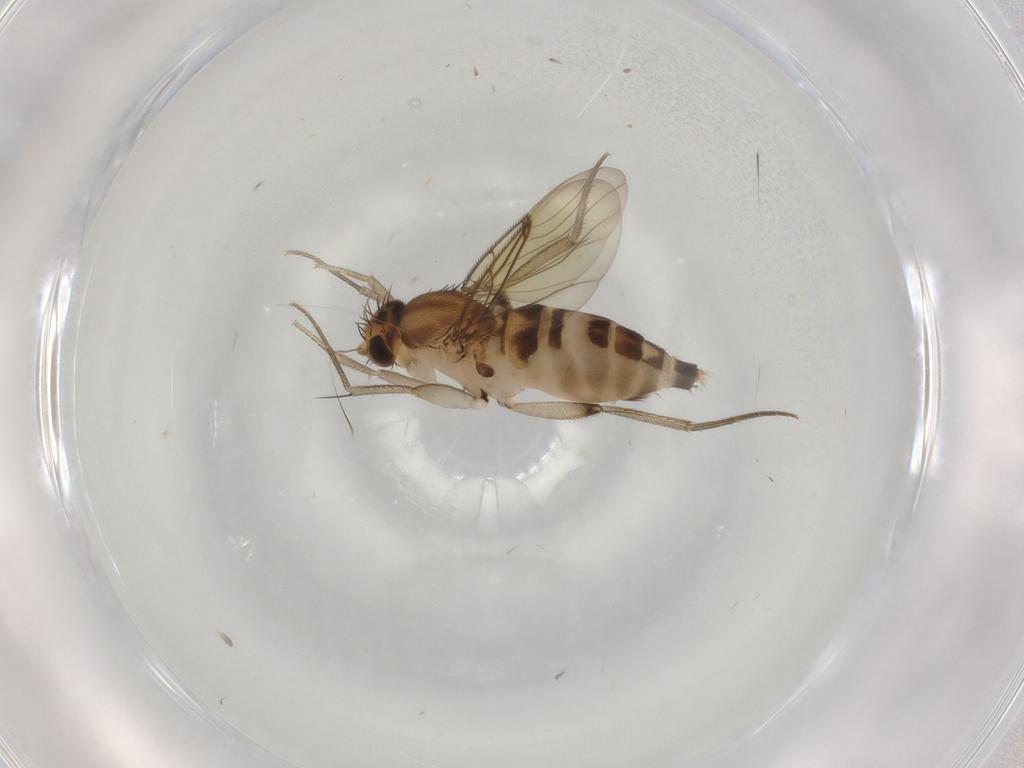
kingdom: Animalia
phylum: Arthropoda
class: Insecta
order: Diptera
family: Phoridae
